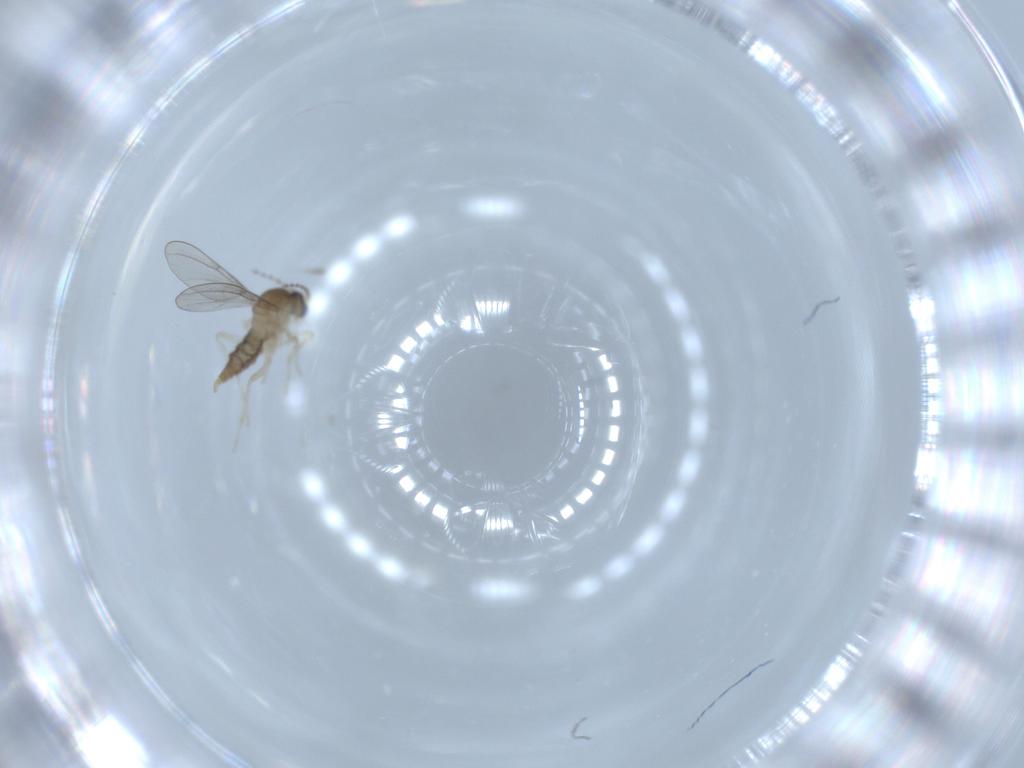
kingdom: Animalia
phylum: Arthropoda
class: Insecta
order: Diptera
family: Cecidomyiidae
